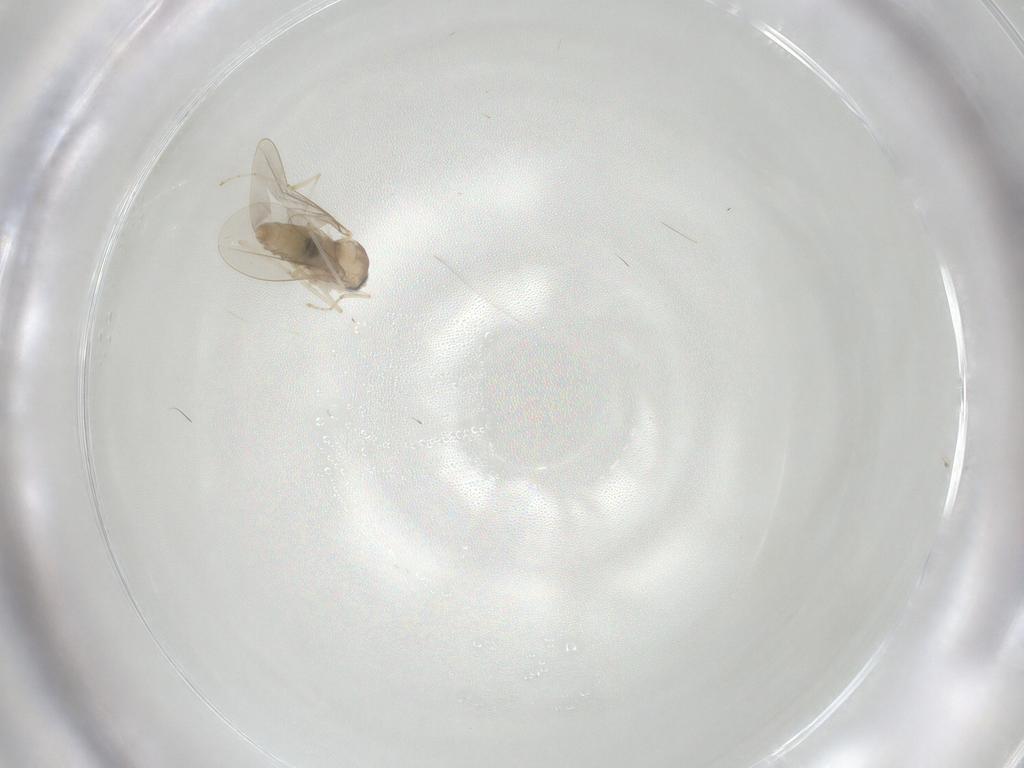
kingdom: Animalia
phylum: Arthropoda
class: Insecta
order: Diptera
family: Cecidomyiidae
